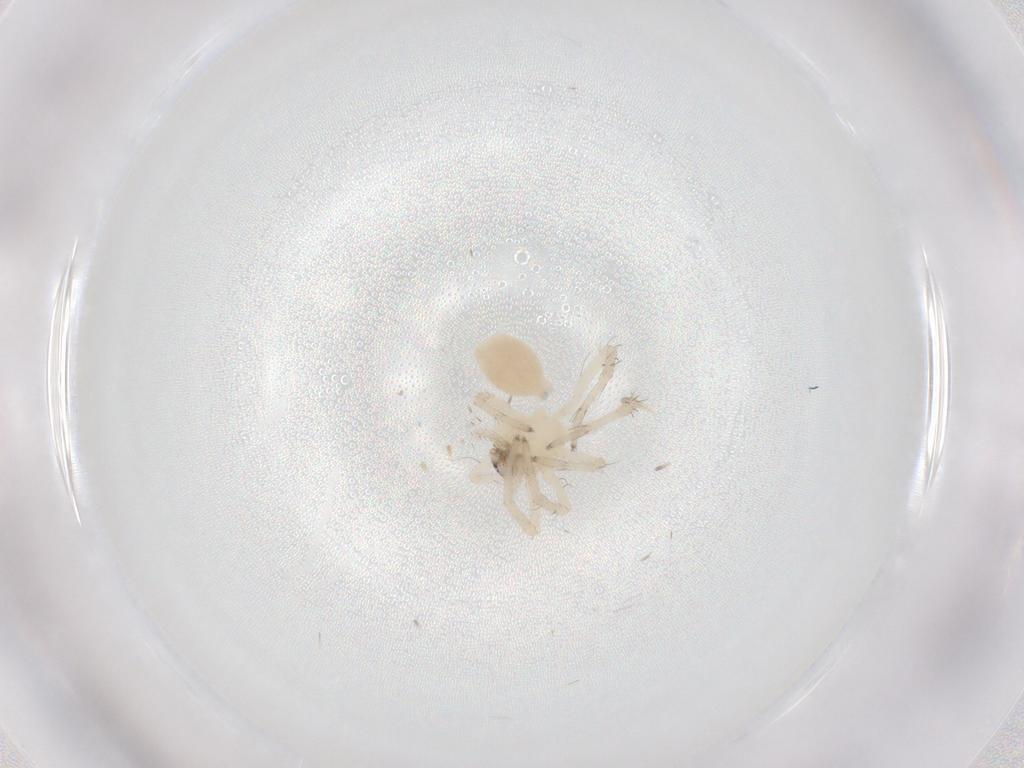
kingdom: Animalia
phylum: Arthropoda
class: Arachnida
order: Araneae
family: Anyphaenidae
